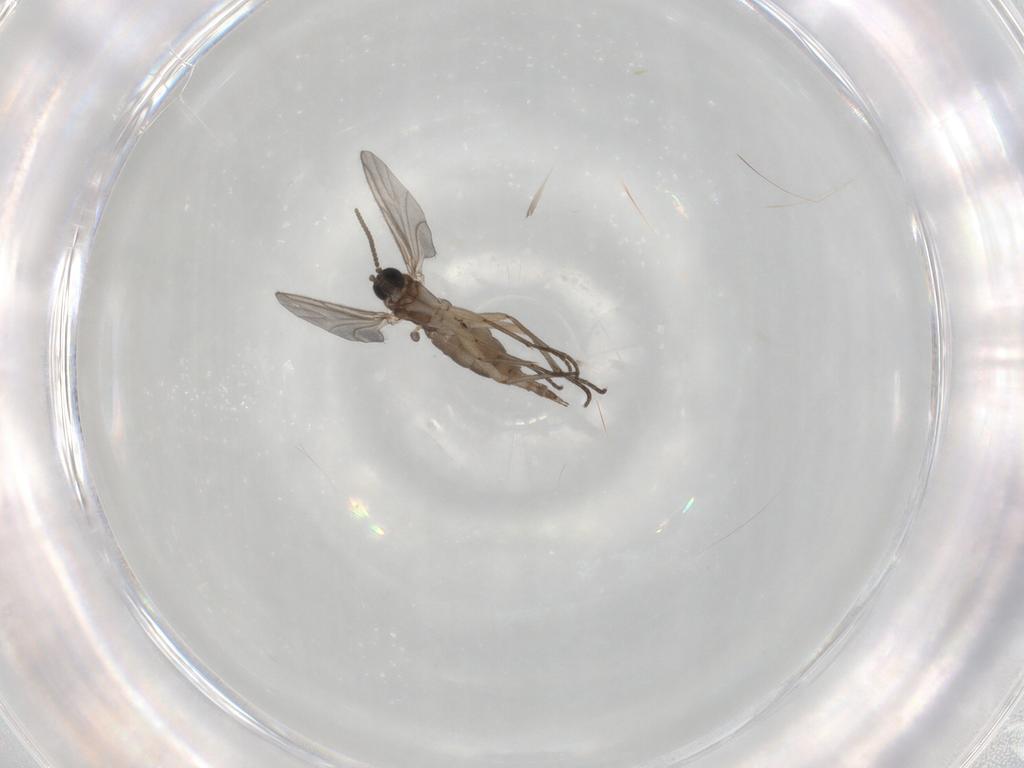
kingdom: Animalia
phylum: Arthropoda
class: Insecta
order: Diptera
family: Sciaridae
